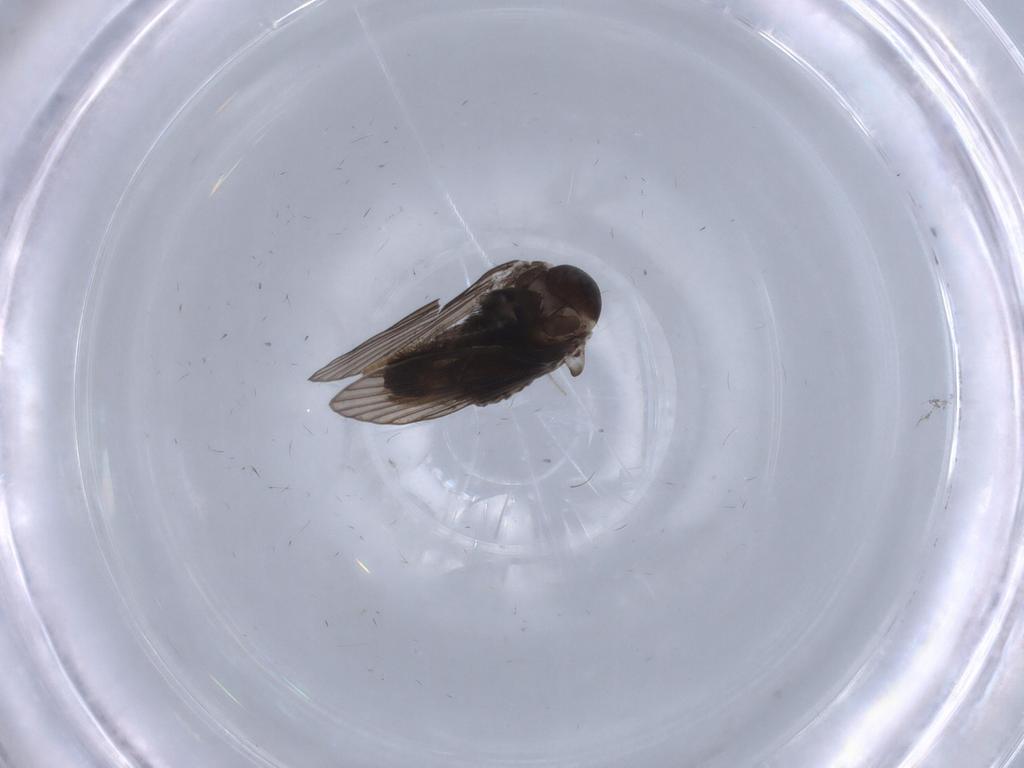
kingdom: Animalia
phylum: Arthropoda
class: Insecta
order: Diptera
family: Psychodidae
